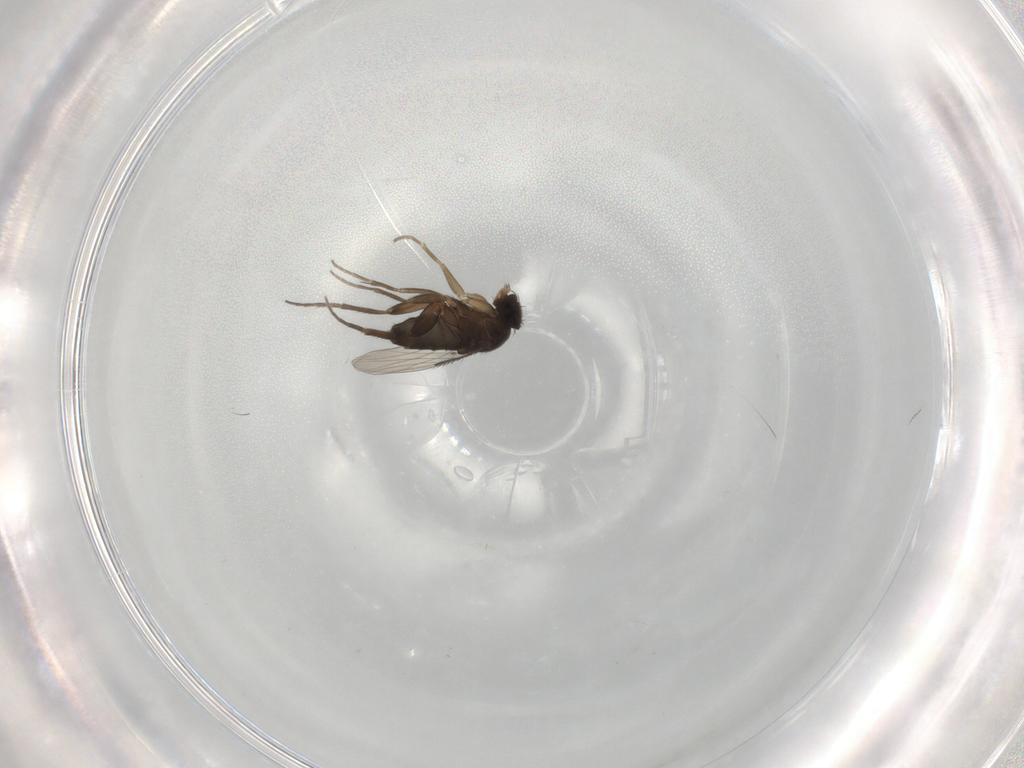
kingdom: Animalia
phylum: Arthropoda
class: Insecta
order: Diptera
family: Phoridae
